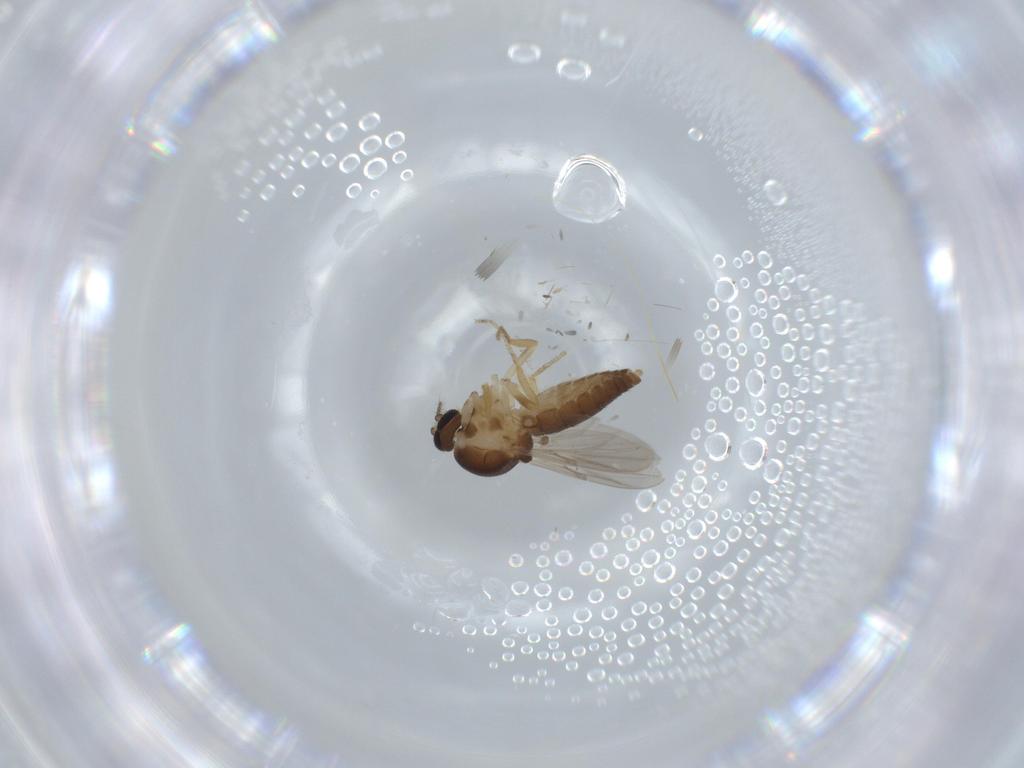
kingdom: Animalia
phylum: Arthropoda
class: Insecta
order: Diptera
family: Ceratopogonidae
